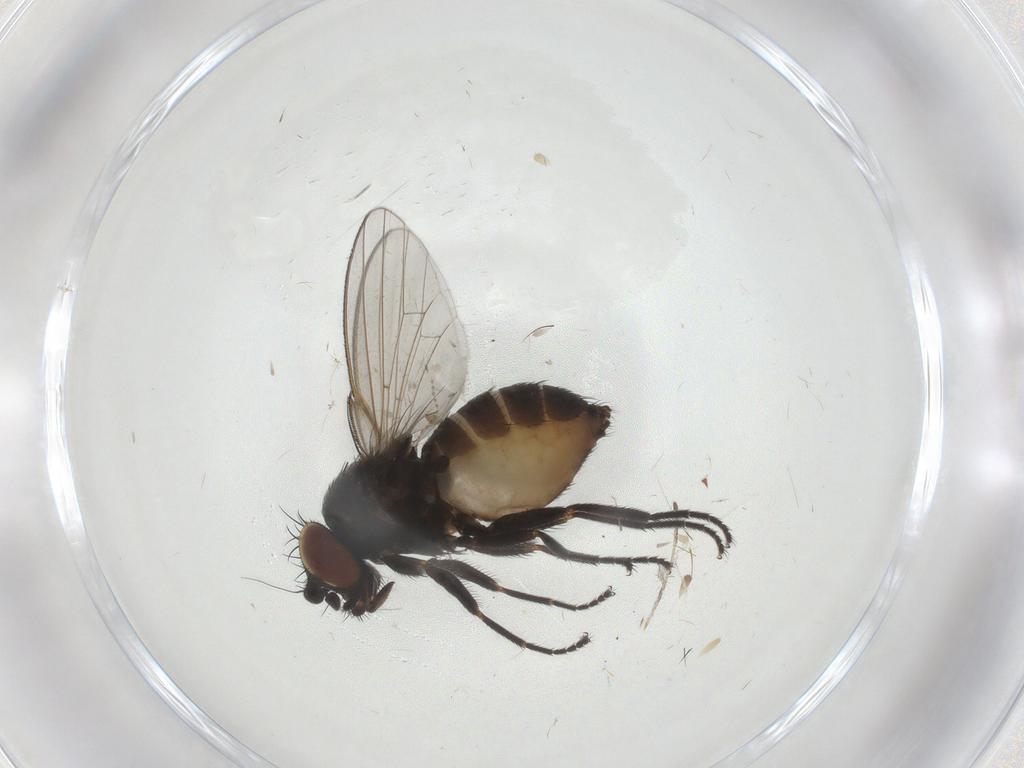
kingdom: Animalia
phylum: Arthropoda
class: Insecta
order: Diptera
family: Milichiidae
